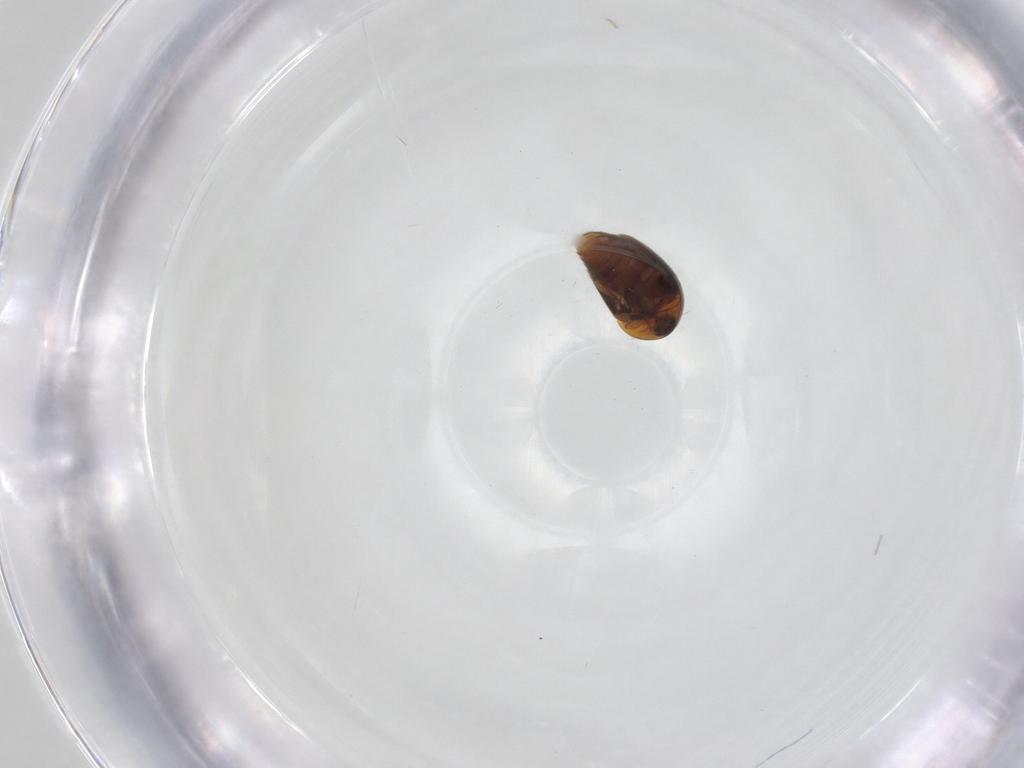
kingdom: Animalia
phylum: Arthropoda
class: Insecta
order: Coleoptera
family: Corylophidae
